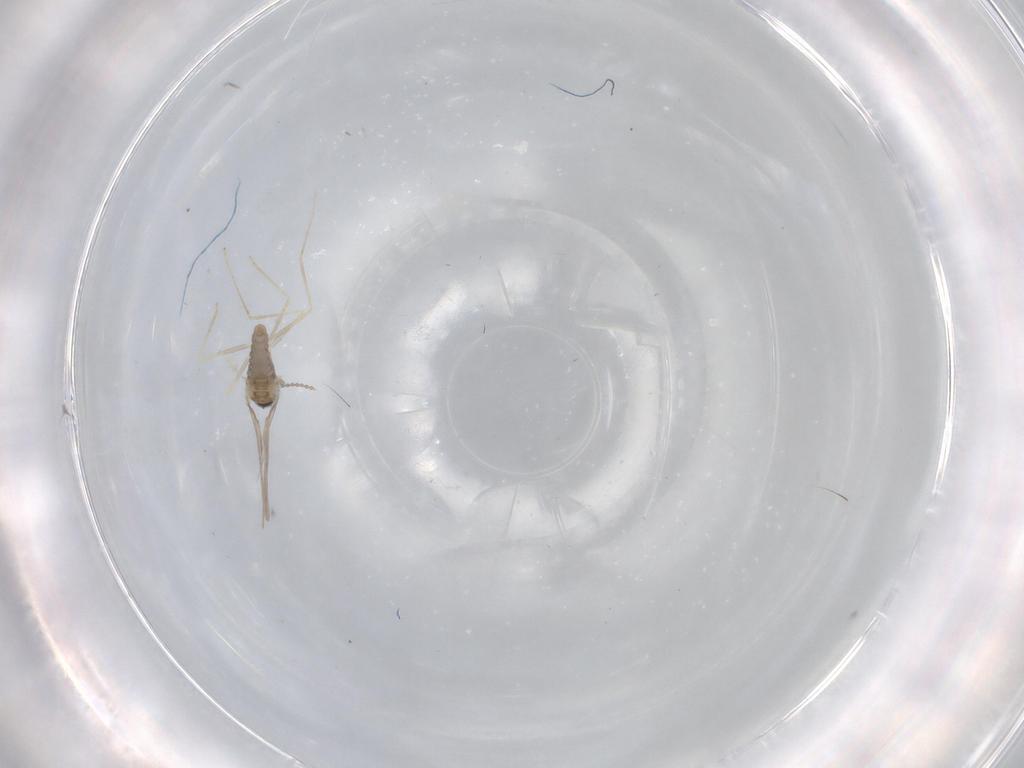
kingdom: Animalia
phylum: Arthropoda
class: Insecta
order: Diptera
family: Cecidomyiidae
